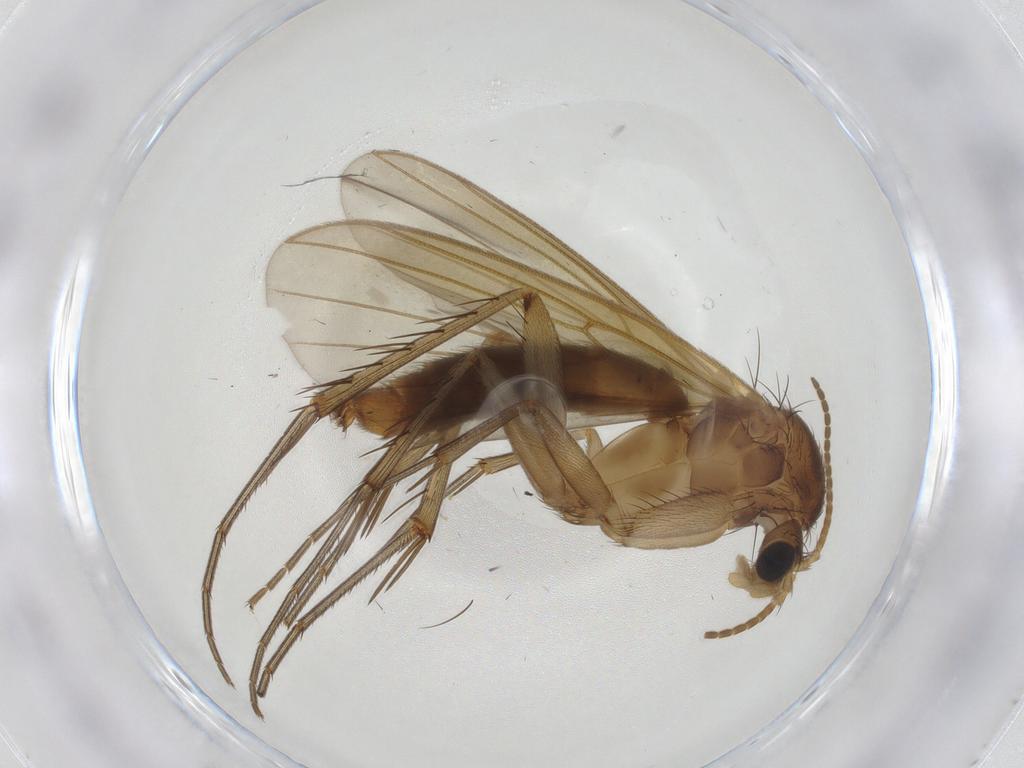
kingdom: Animalia
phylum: Arthropoda
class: Insecta
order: Diptera
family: Mycetophilidae
